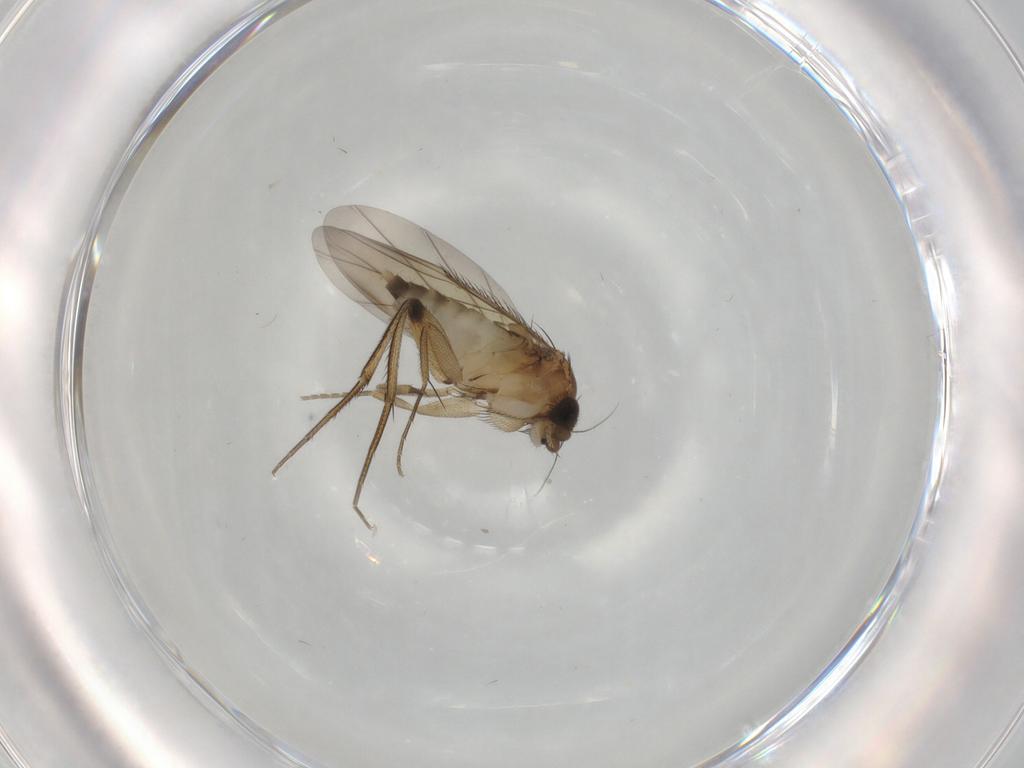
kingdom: Animalia
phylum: Arthropoda
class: Insecta
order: Diptera
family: Phoridae
